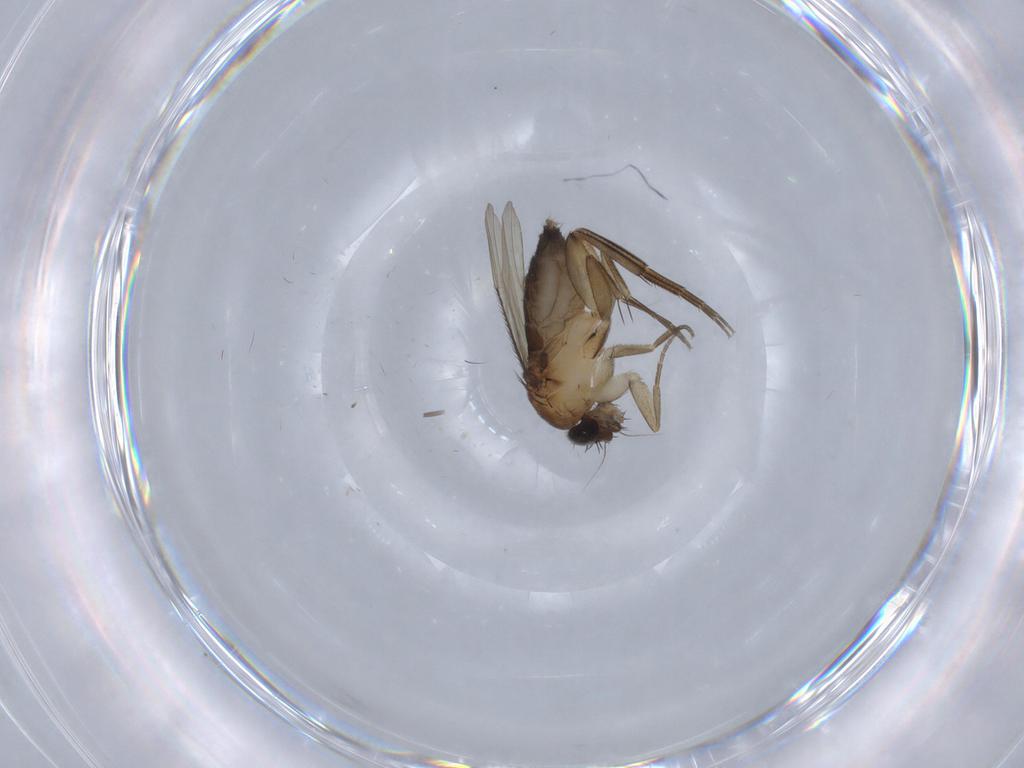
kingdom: Animalia
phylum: Arthropoda
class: Insecta
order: Diptera
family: Phoridae
